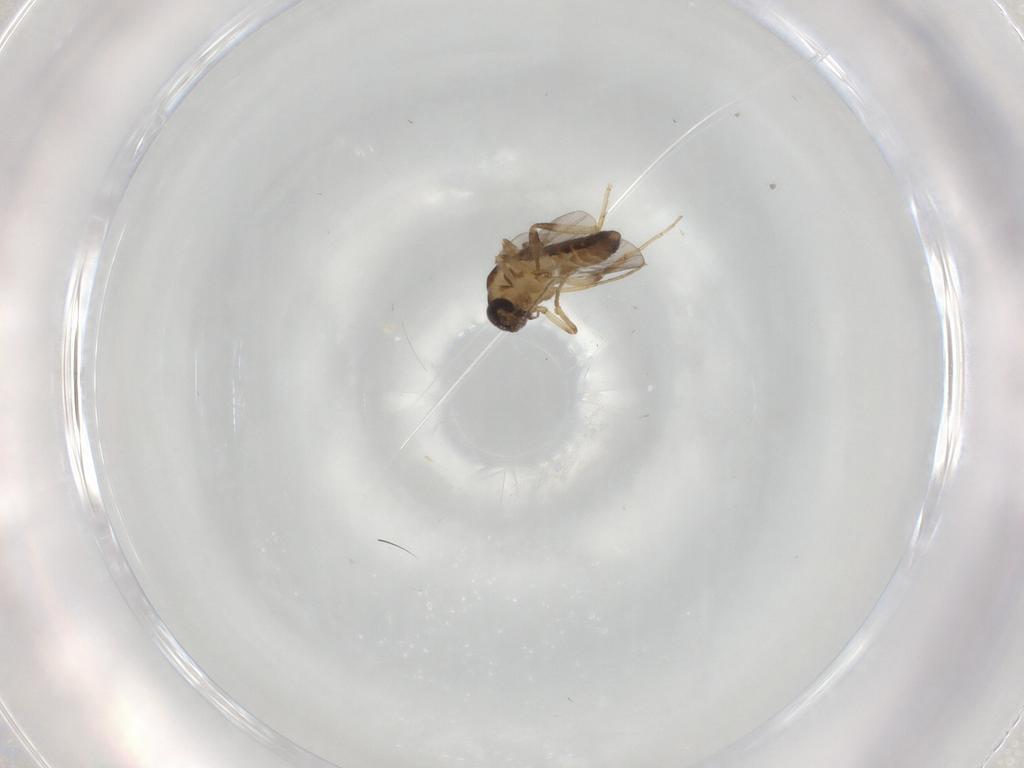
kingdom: Animalia
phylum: Arthropoda
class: Insecta
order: Diptera
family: Ceratopogonidae
